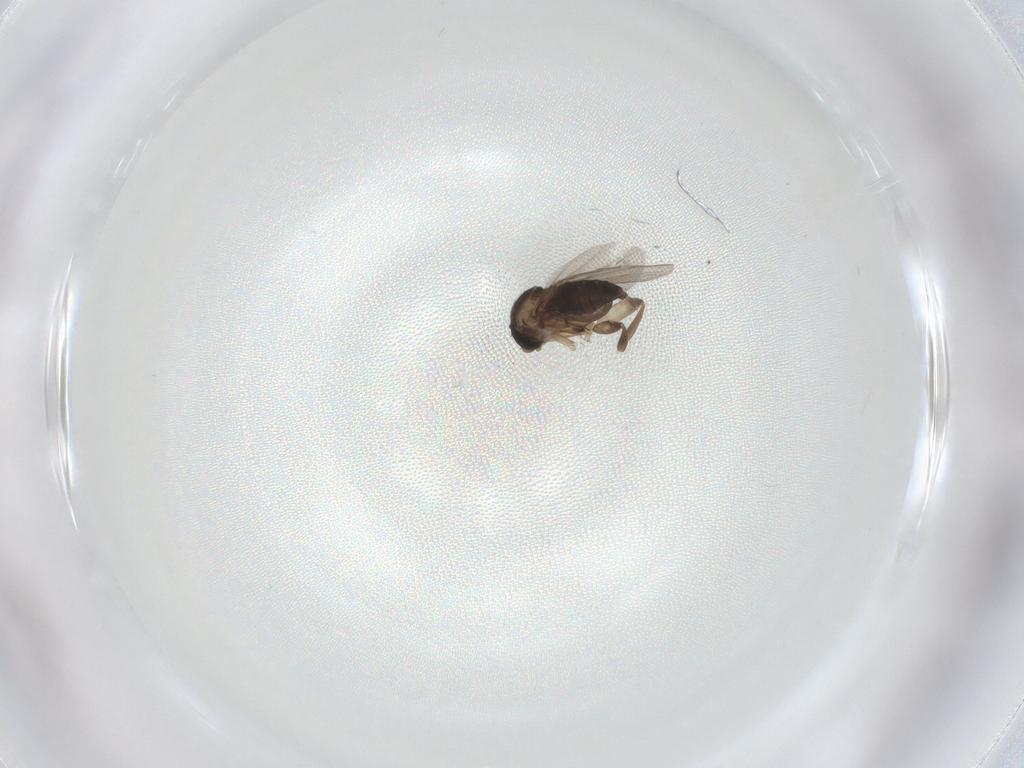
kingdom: Animalia
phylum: Arthropoda
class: Insecta
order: Diptera
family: Phoridae
